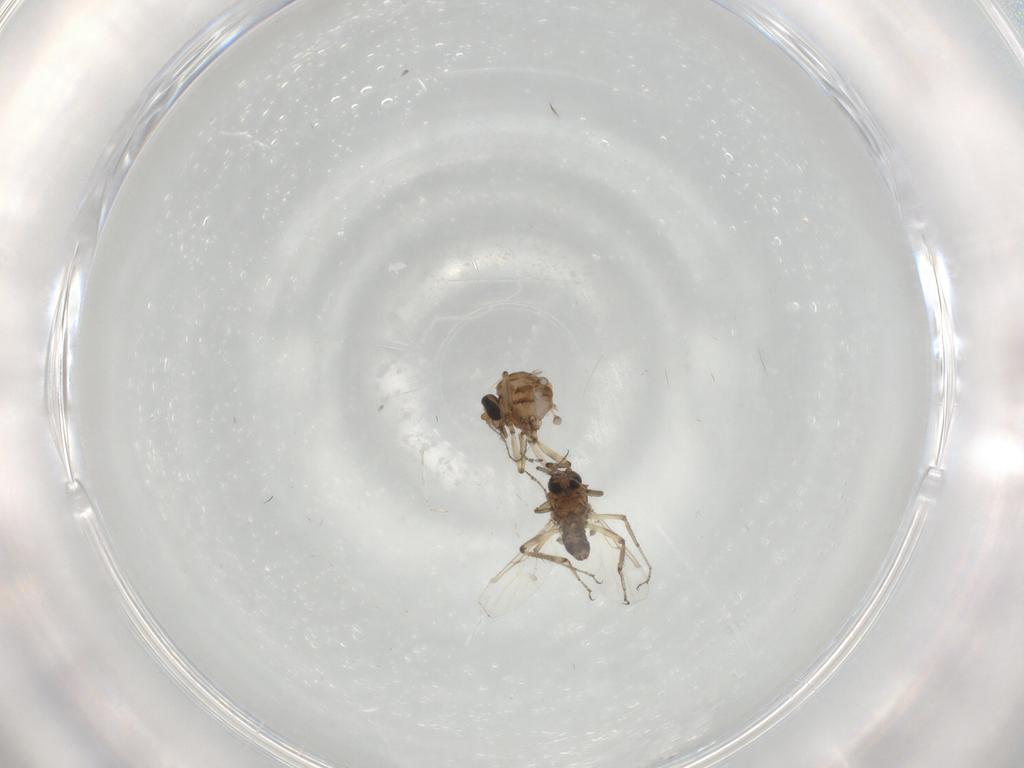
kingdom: Animalia
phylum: Arthropoda
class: Insecta
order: Diptera
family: Ceratopogonidae
